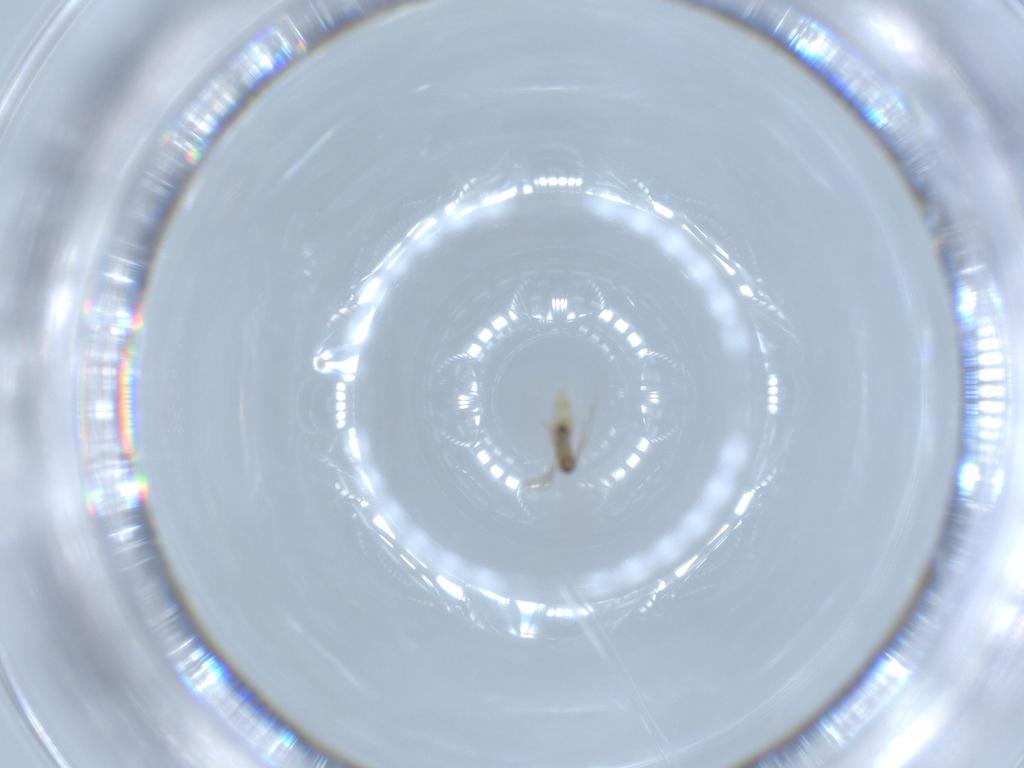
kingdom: Animalia
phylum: Arthropoda
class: Insecta
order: Diptera
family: Cecidomyiidae
